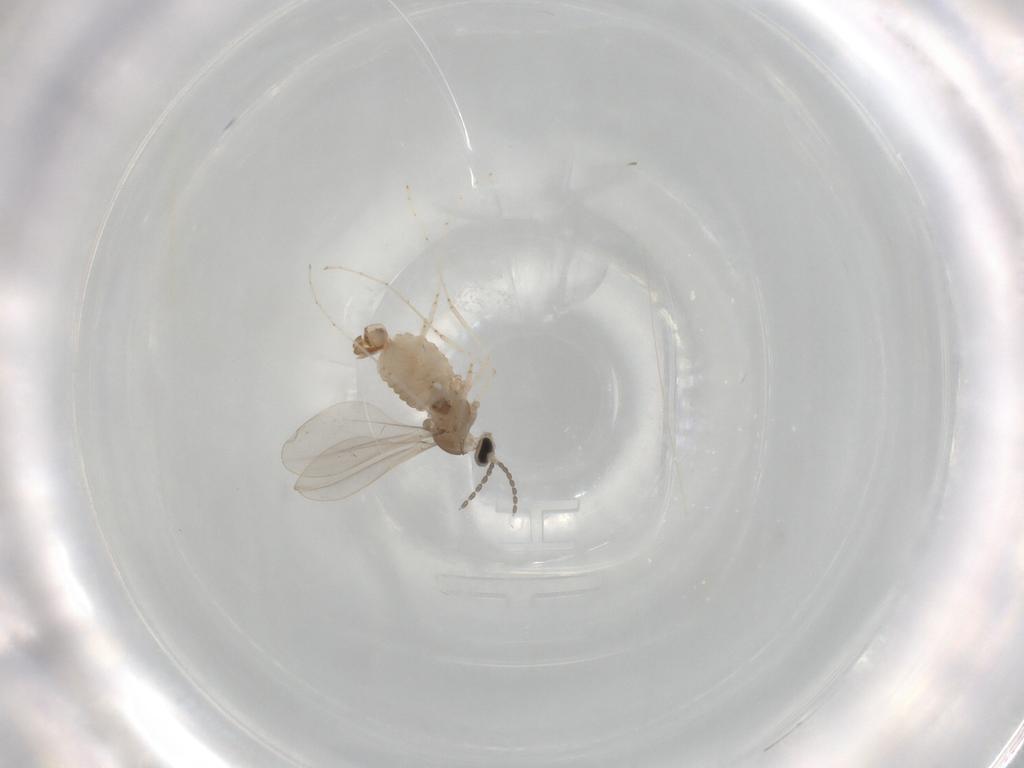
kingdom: Animalia
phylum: Arthropoda
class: Insecta
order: Diptera
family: Cecidomyiidae
